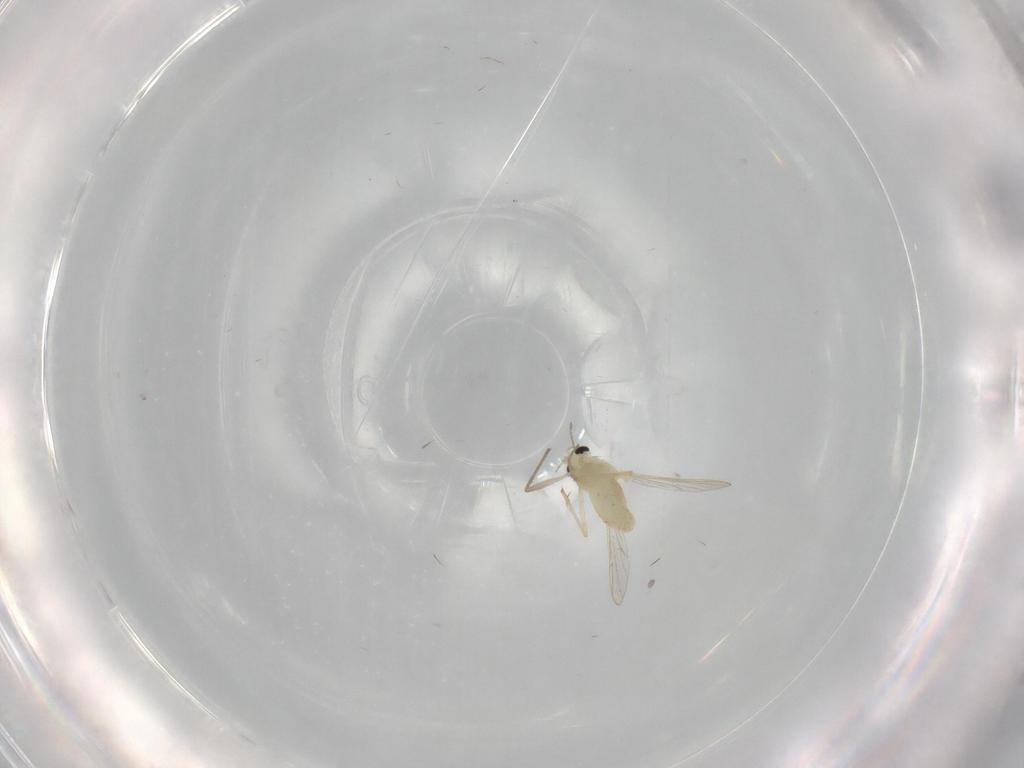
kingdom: Animalia
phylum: Arthropoda
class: Insecta
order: Diptera
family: Chironomidae
